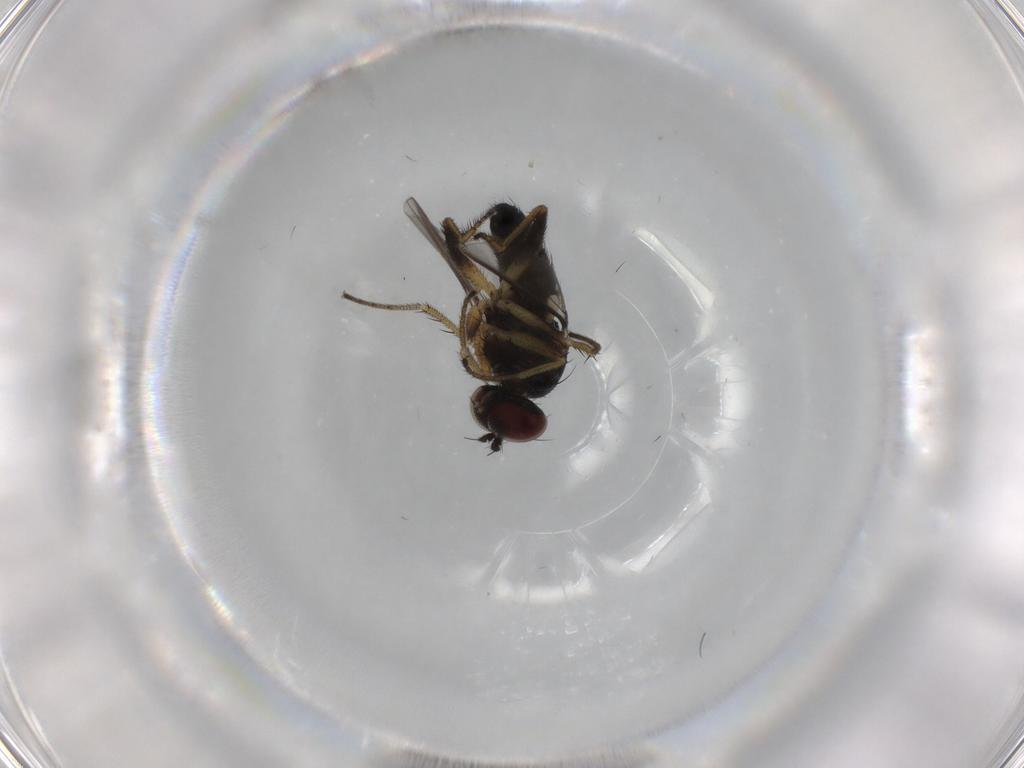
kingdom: Animalia
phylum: Arthropoda
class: Insecta
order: Diptera
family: Dolichopodidae
